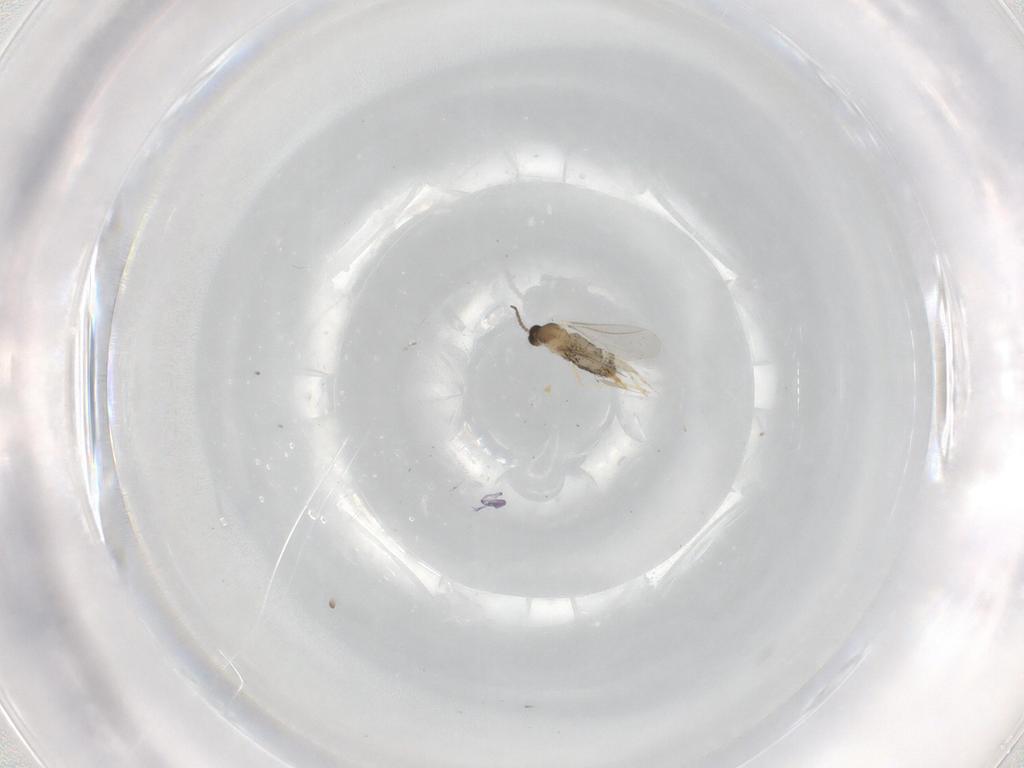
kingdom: Animalia
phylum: Arthropoda
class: Insecta
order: Diptera
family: Cecidomyiidae
